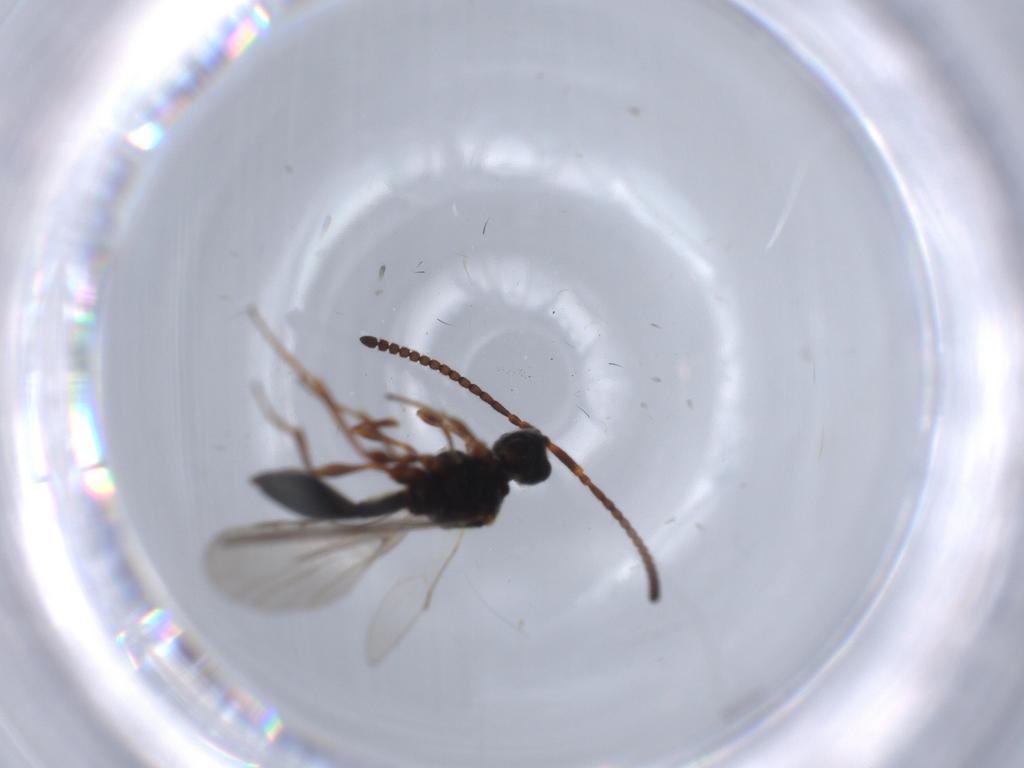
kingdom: Animalia
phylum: Arthropoda
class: Insecta
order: Hymenoptera
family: Diapriidae
